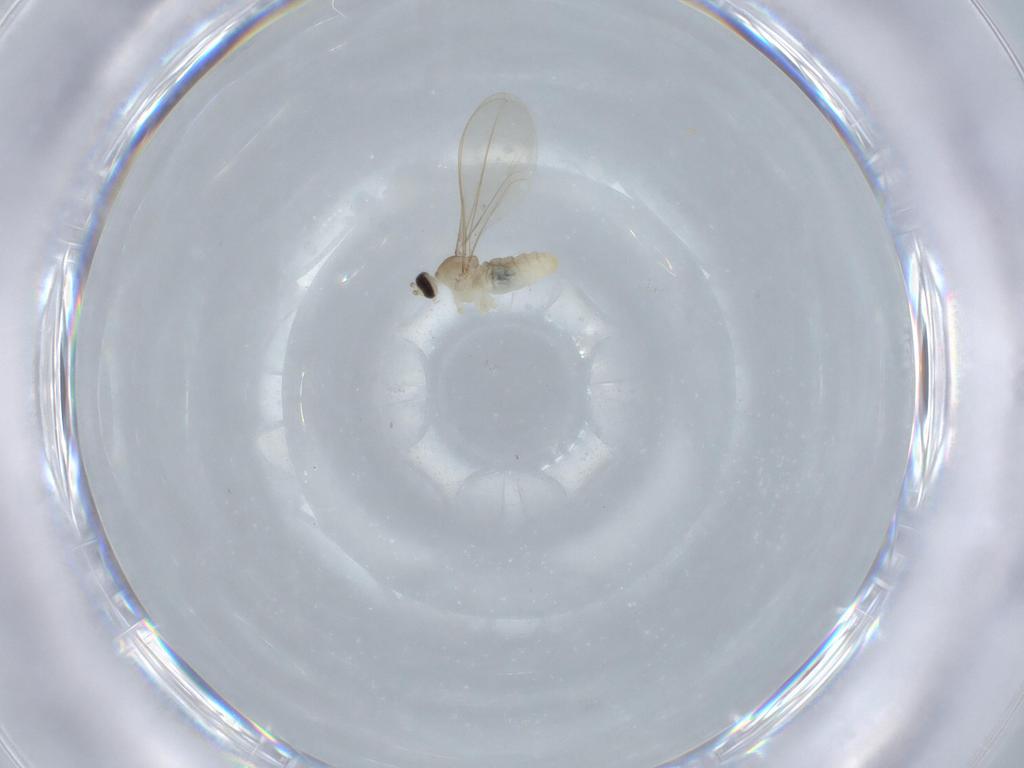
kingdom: Animalia
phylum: Arthropoda
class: Insecta
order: Diptera
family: Cecidomyiidae
